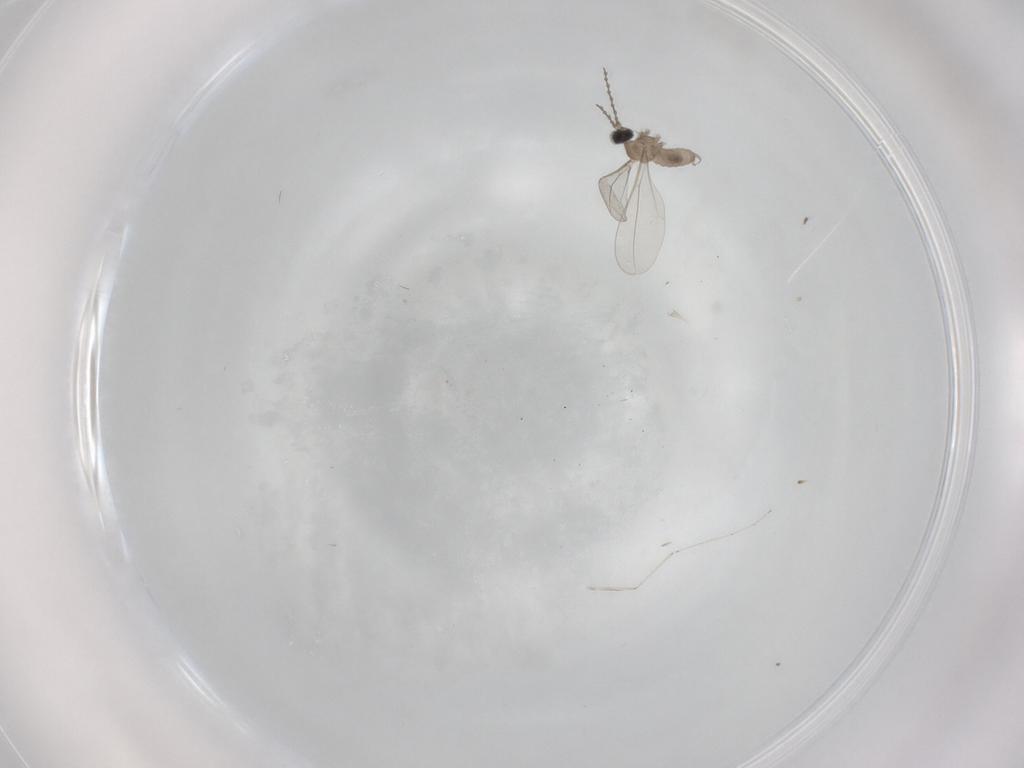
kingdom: Animalia
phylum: Arthropoda
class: Insecta
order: Diptera
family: Cecidomyiidae
